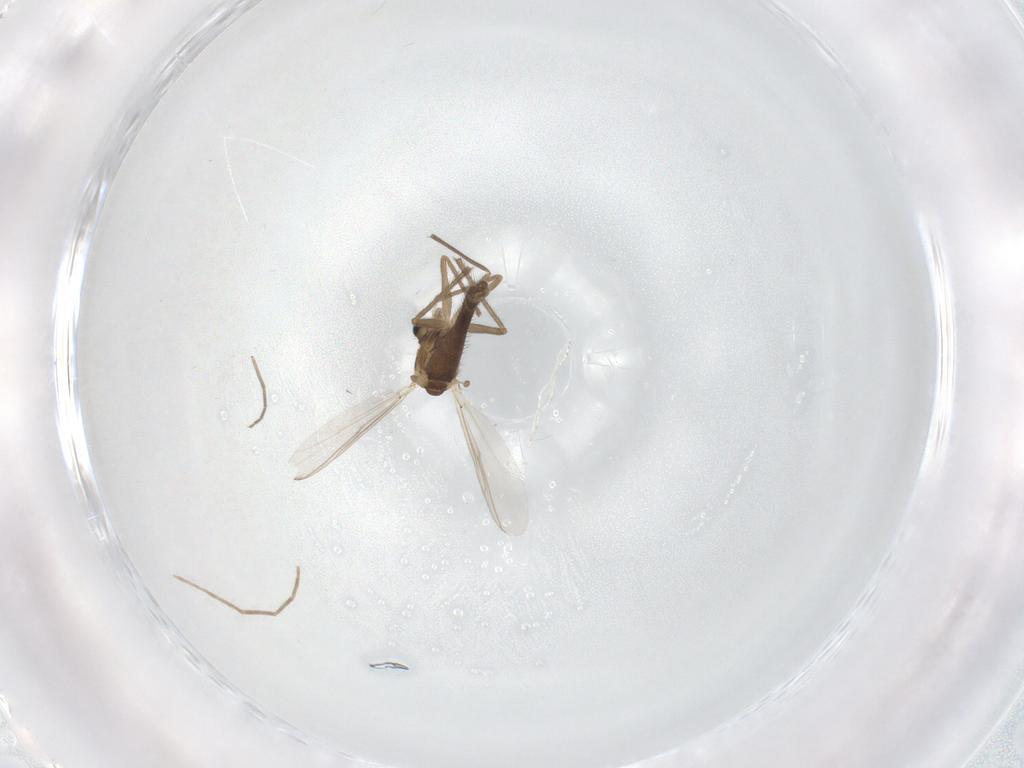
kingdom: Animalia
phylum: Arthropoda
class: Insecta
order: Diptera
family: Chironomidae
